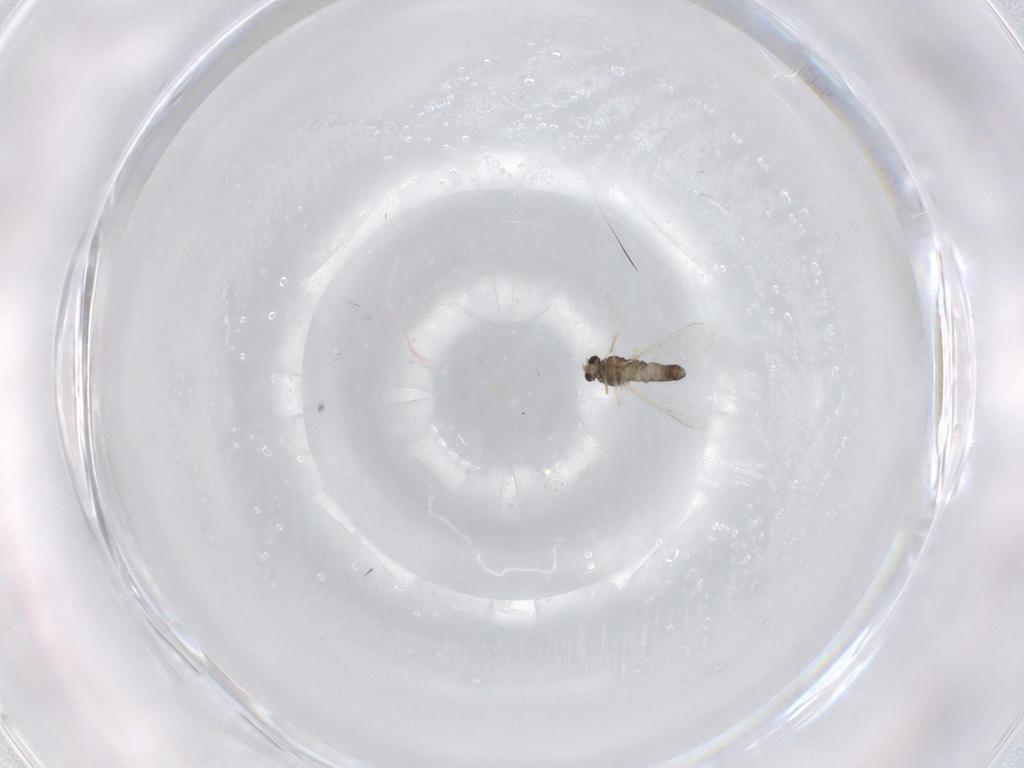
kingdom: Animalia
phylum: Arthropoda
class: Insecta
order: Diptera
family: Chironomidae
